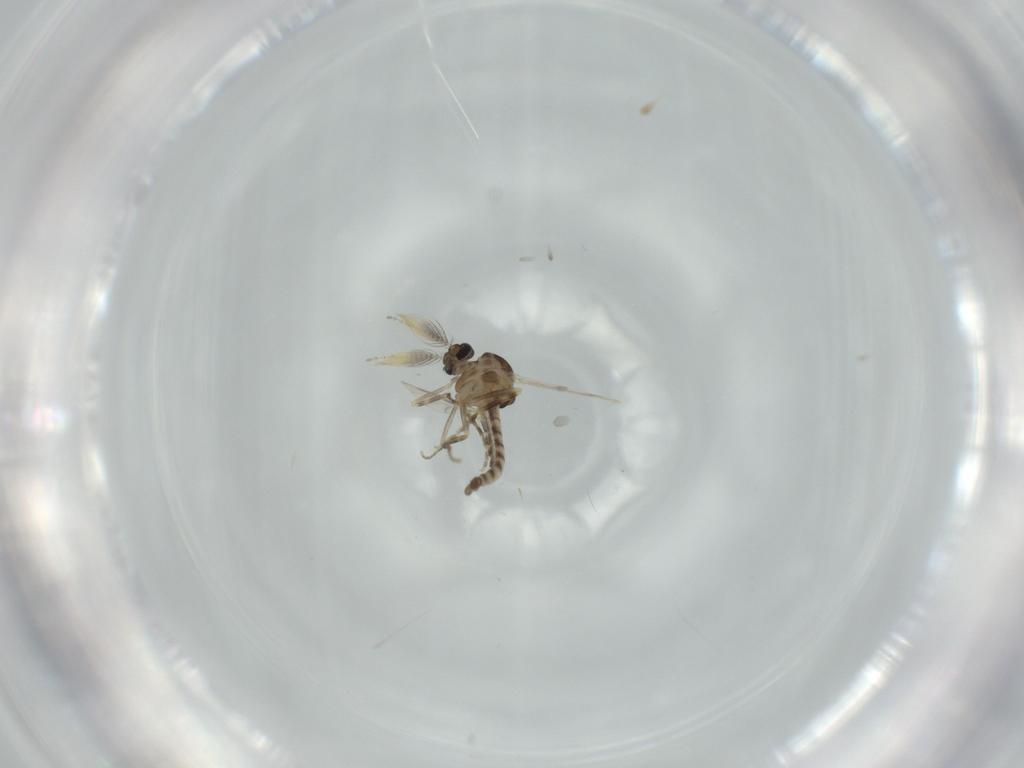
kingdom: Animalia
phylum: Arthropoda
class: Insecta
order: Diptera
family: Ceratopogonidae
